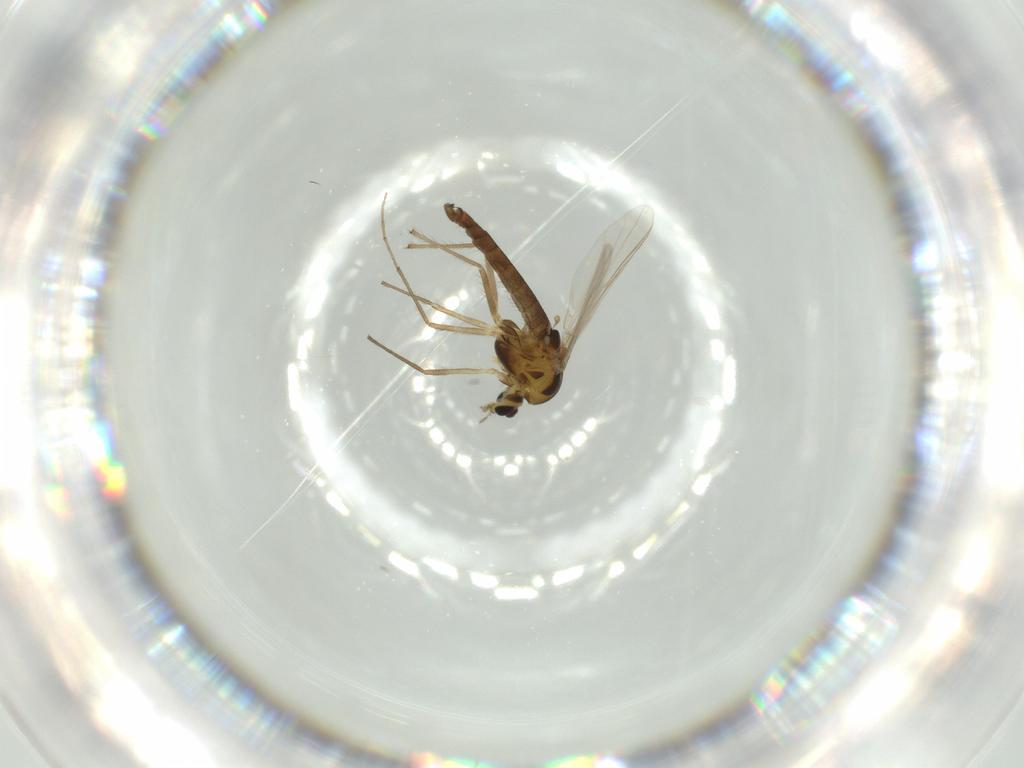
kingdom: Animalia
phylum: Arthropoda
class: Insecta
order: Diptera
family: Chironomidae
